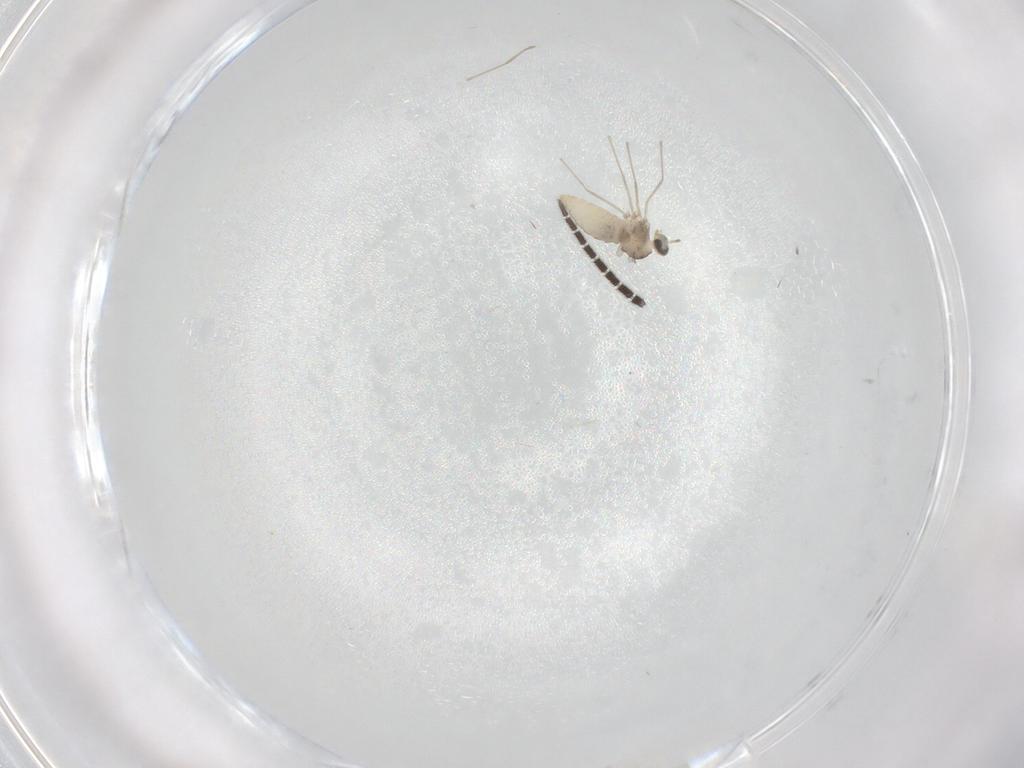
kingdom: Animalia
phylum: Arthropoda
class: Insecta
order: Diptera
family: Sciaridae
